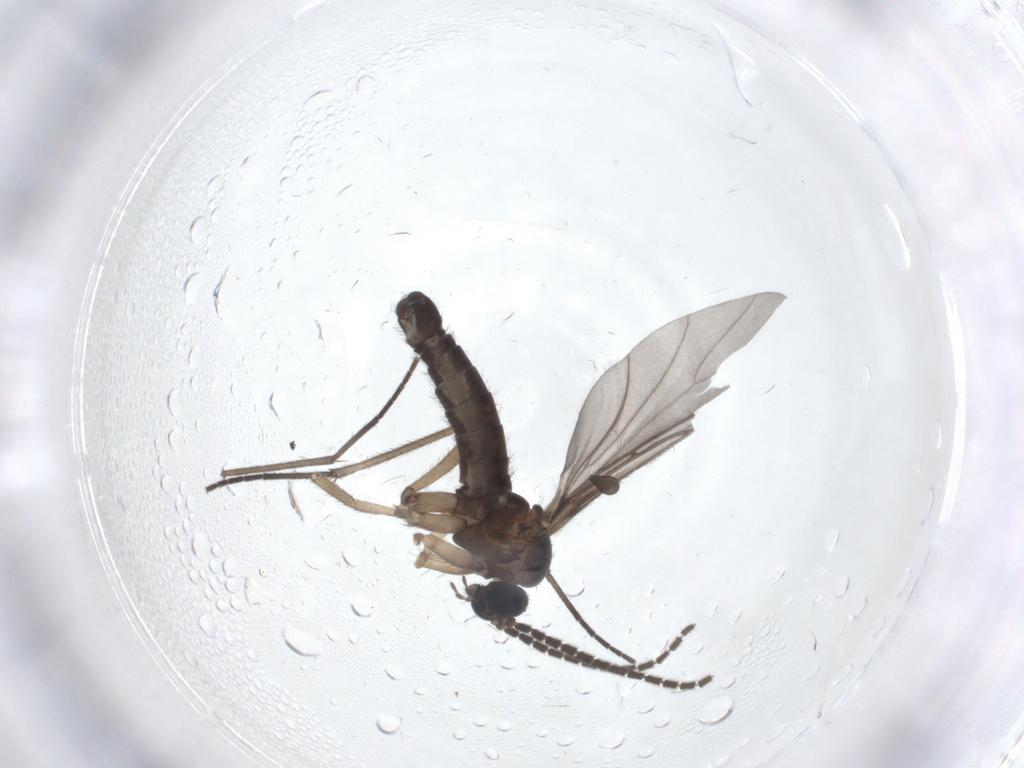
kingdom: Animalia
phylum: Arthropoda
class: Insecta
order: Diptera
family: Sciaridae
